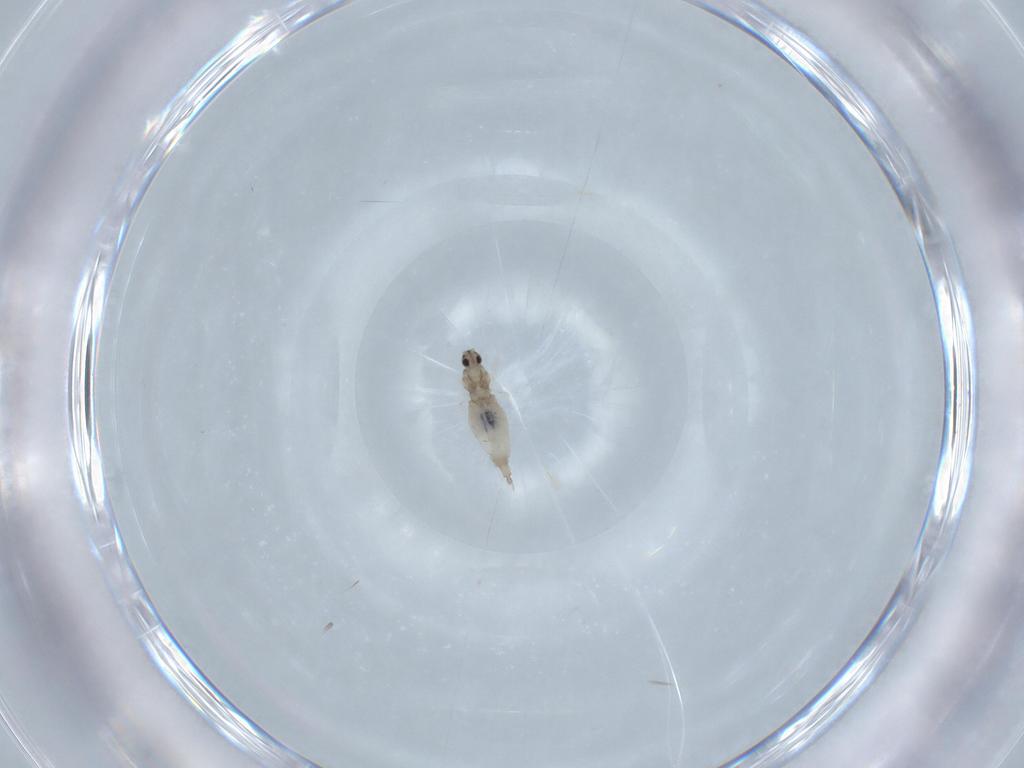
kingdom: Animalia
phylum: Arthropoda
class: Insecta
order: Diptera
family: Cecidomyiidae
